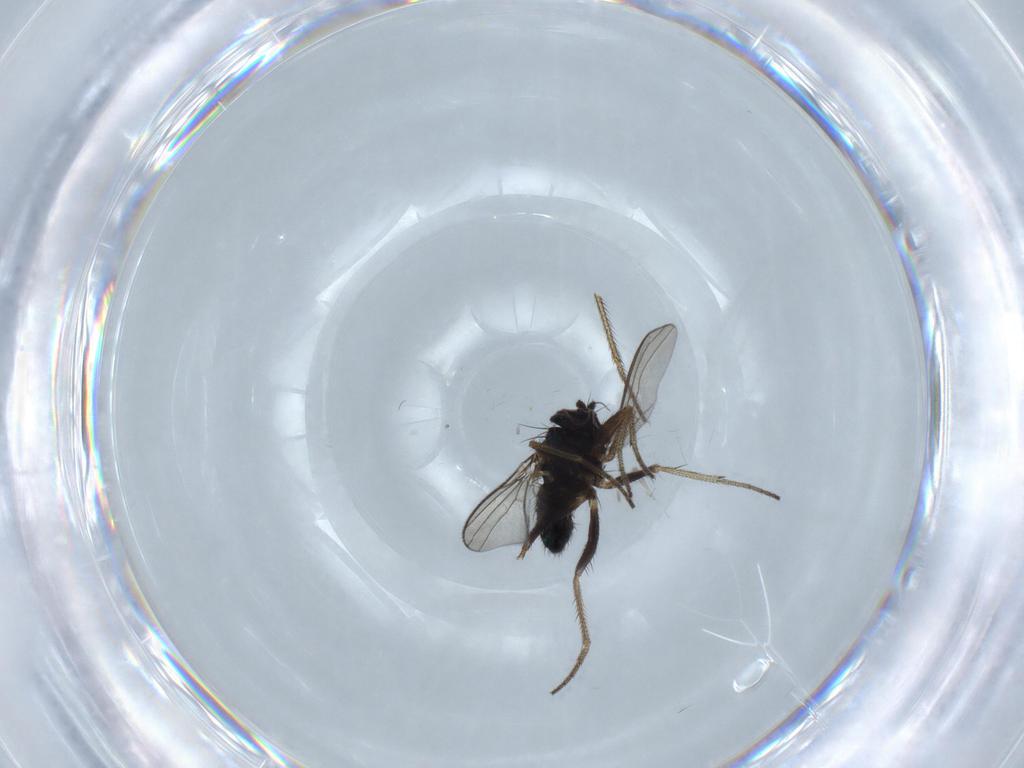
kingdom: Animalia
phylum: Arthropoda
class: Insecta
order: Diptera
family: Dolichopodidae
